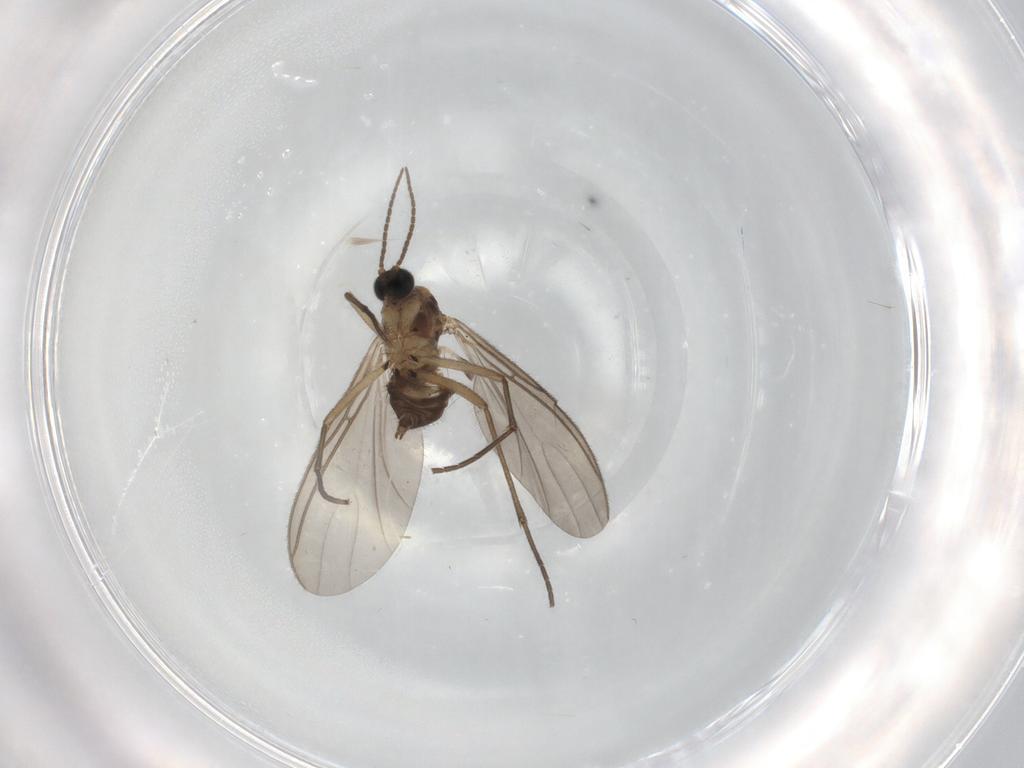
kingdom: Animalia
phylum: Arthropoda
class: Insecta
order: Diptera
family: Sciaridae
